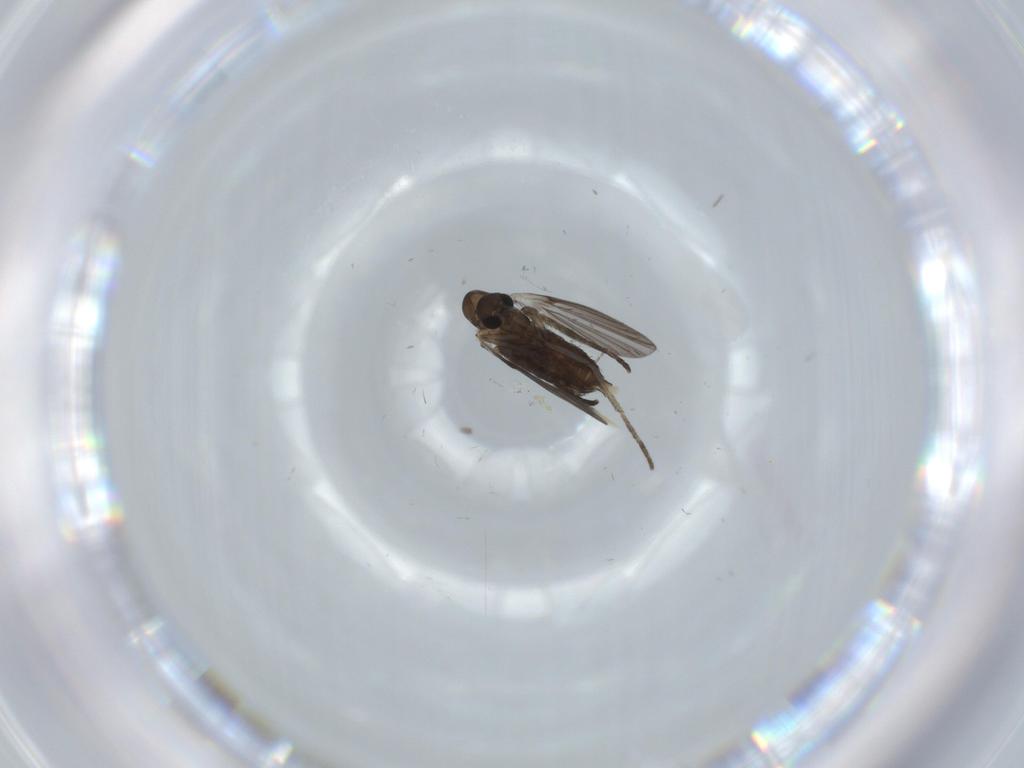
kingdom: Animalia
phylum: Arthropoda
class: Insecta
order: Diptera
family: Psychodidae
